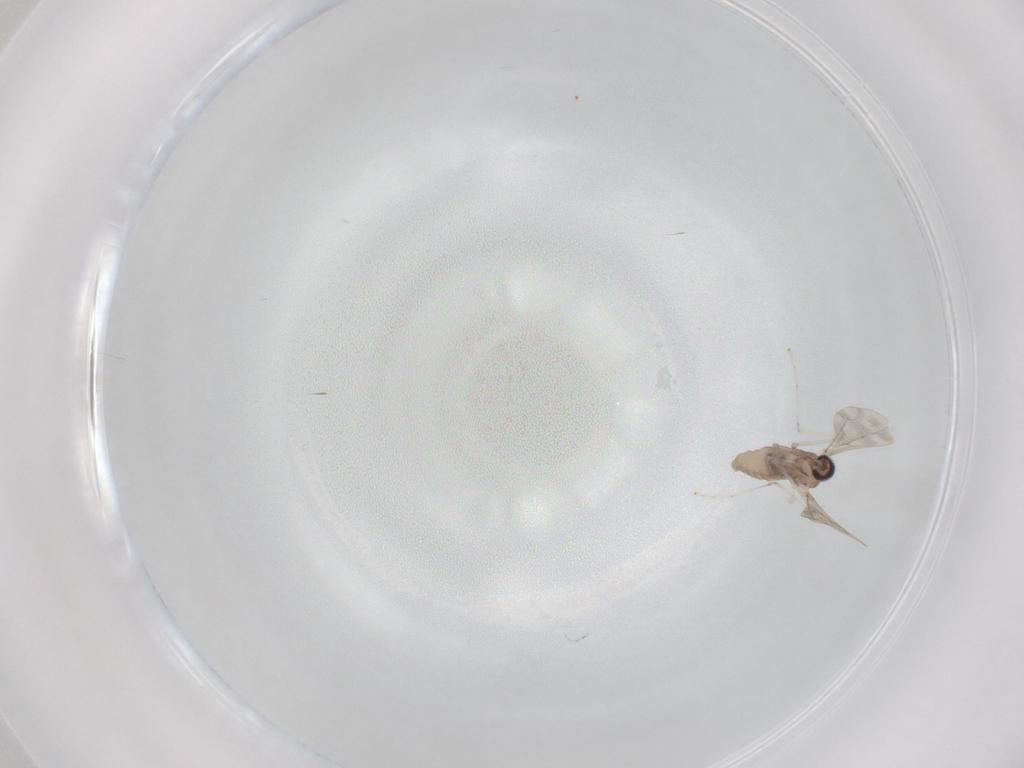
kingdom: Animalia
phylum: Arthropoda
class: Insecta
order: Diptera
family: Cecidomyiidae
